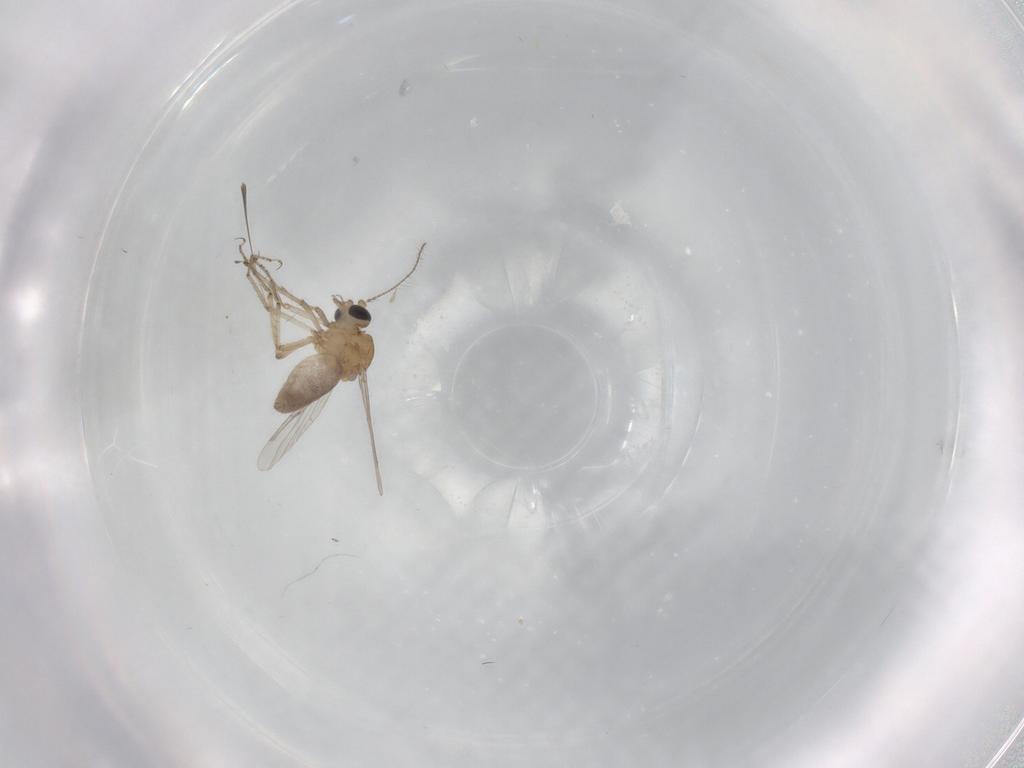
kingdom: Animalia
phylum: Arthropoda
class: Insecta
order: Diptera
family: Ceratopogonidae
